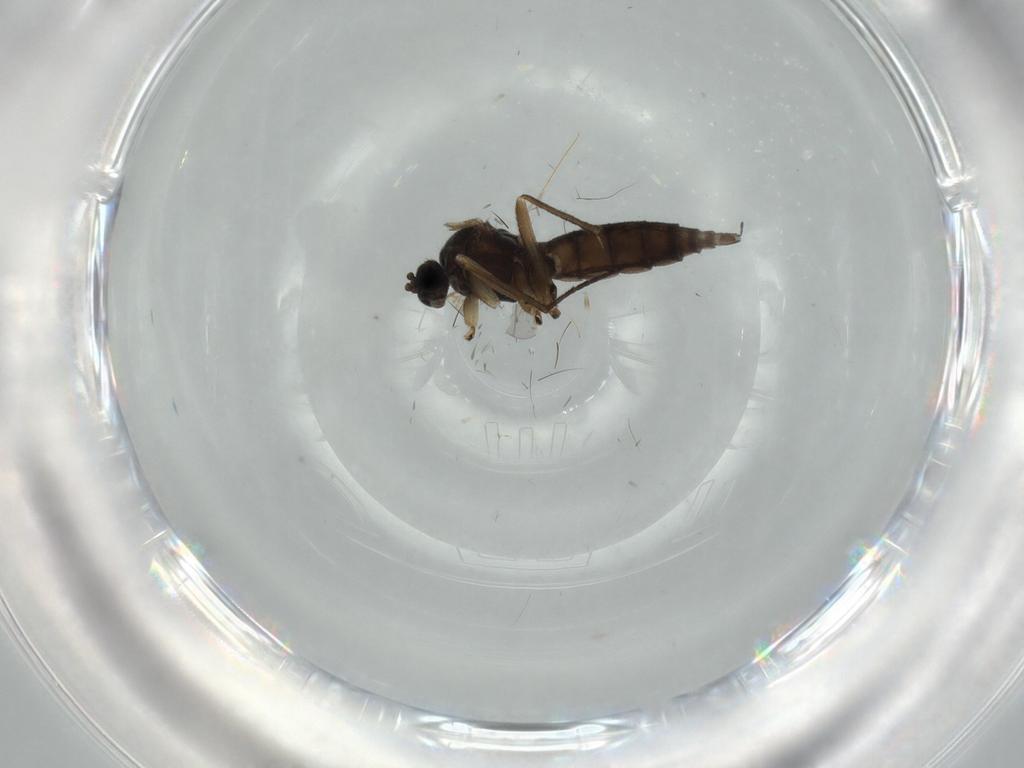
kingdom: Animalia
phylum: Arthropoda
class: Insecta
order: Diptera
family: Sciaridae
